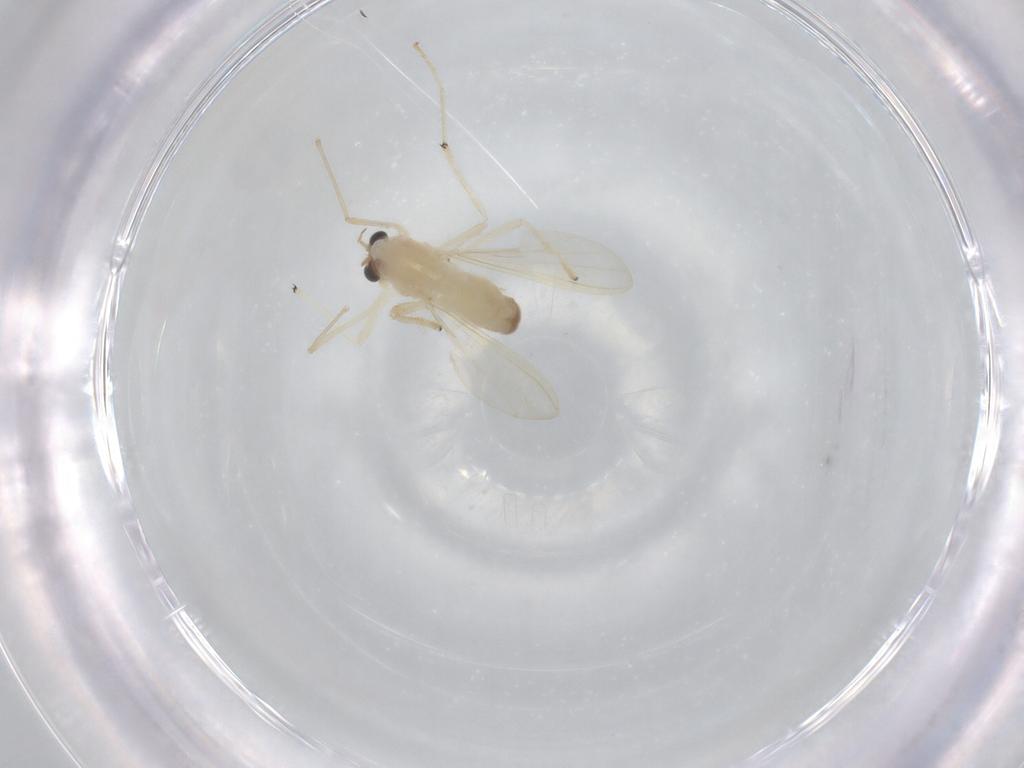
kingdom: Animalia
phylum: Arthropoda
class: Insecta
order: Diptera
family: Chironomidae
